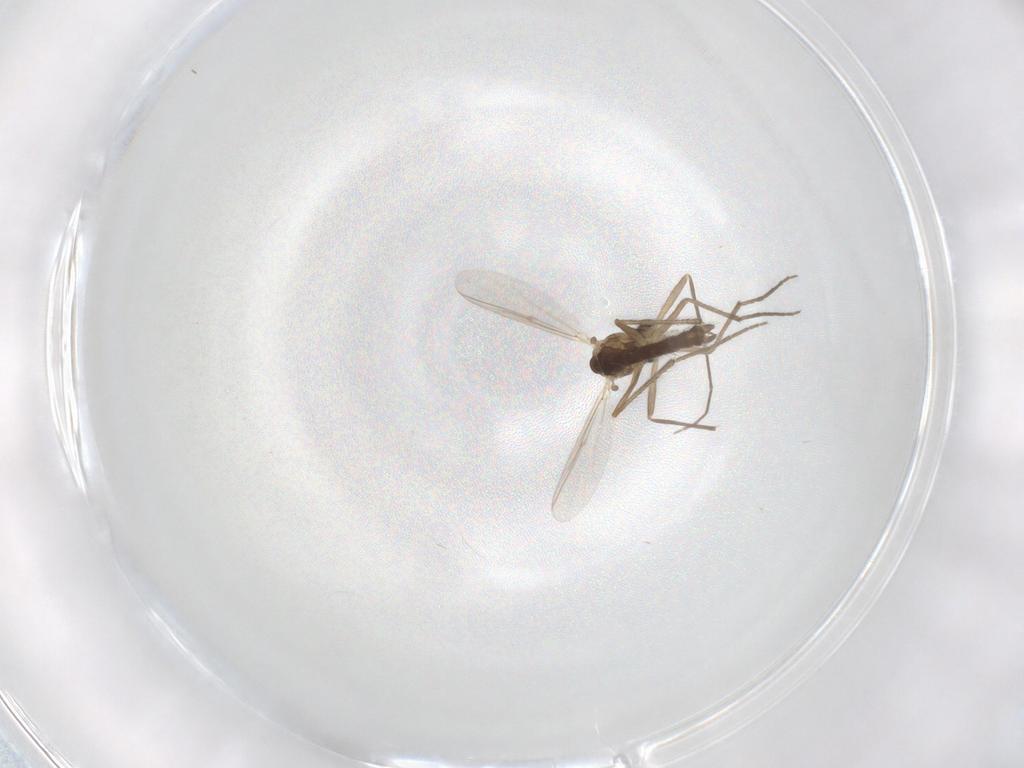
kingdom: Animalia
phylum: Arthropoda
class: Insecta
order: Diptera
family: Chironomidae
